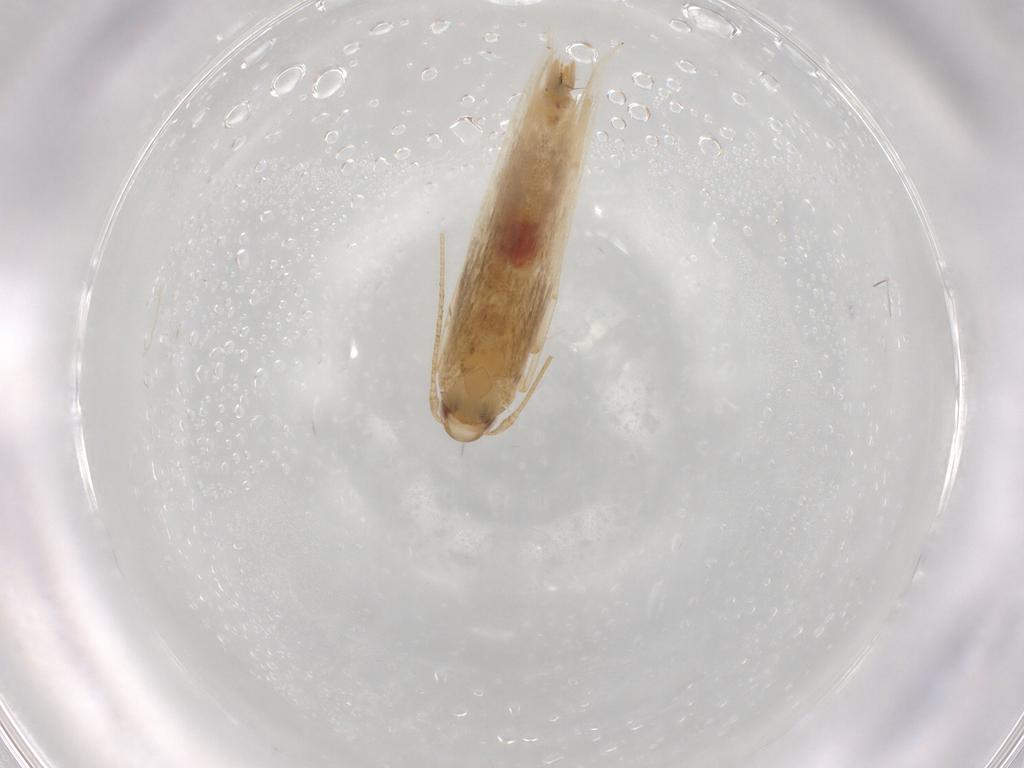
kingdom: Animalia
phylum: Arthropoda
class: Insecta
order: Lepidoptera
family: Cosmopterigidae
